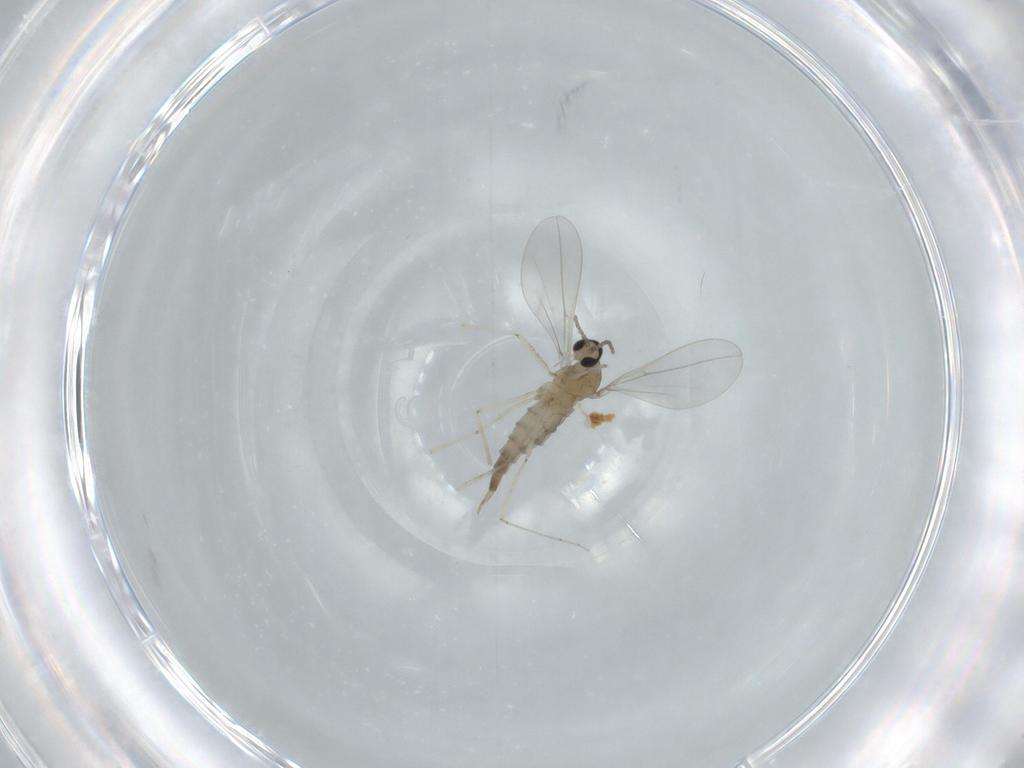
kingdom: Animalia
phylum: Arthropoda
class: Insecta
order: Diptera
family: Cecidomyiidae
